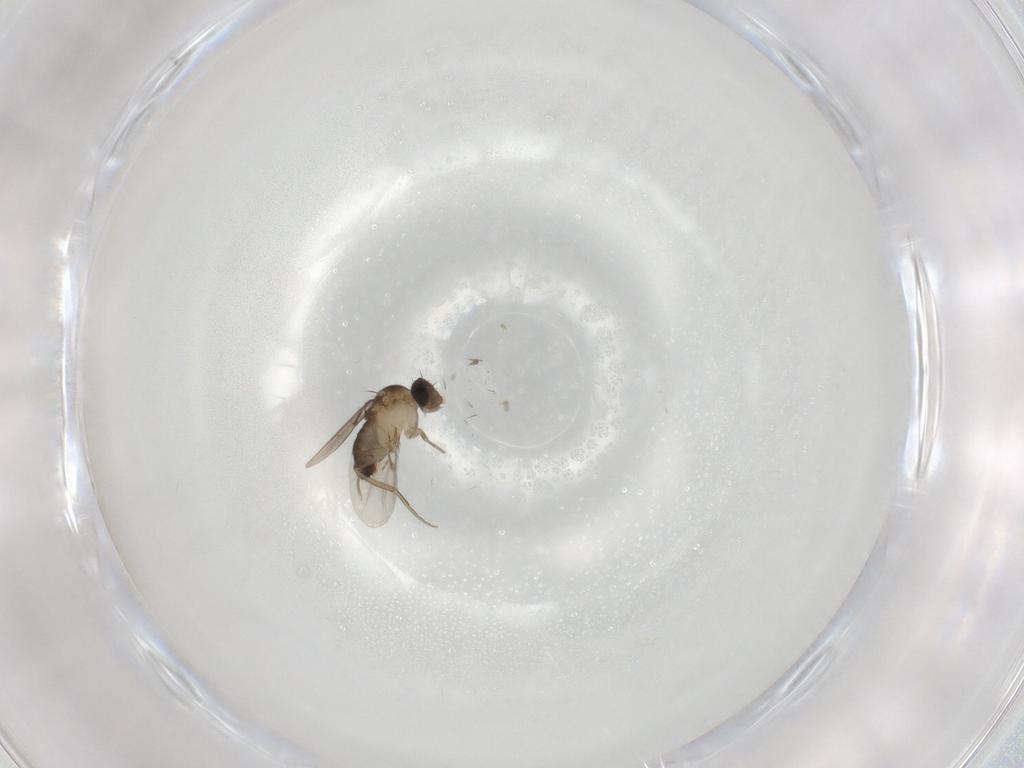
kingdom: Animalia
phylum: Arthropoda
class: Insecta
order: Diptera
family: Phoridae
